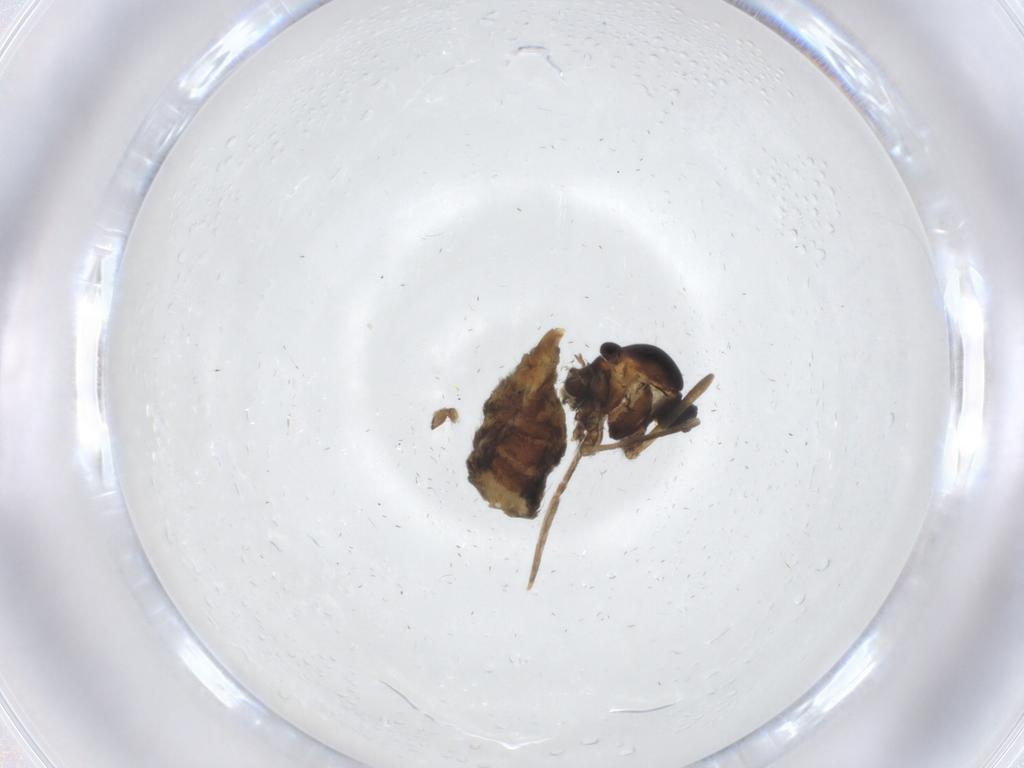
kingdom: Animalia
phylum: Arthropoda
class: Insecta
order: Diptera
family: Cecidomyiidae
